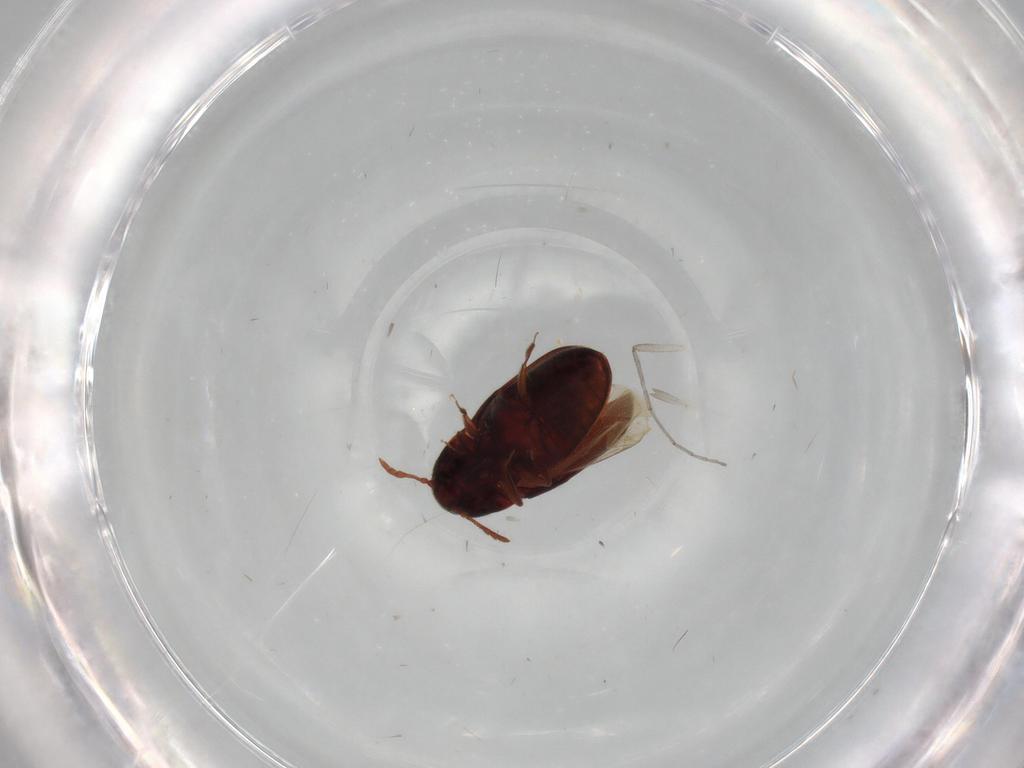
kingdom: Animalia
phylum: Arthropoda
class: Insecta
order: Coleoptera
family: Throscidae
